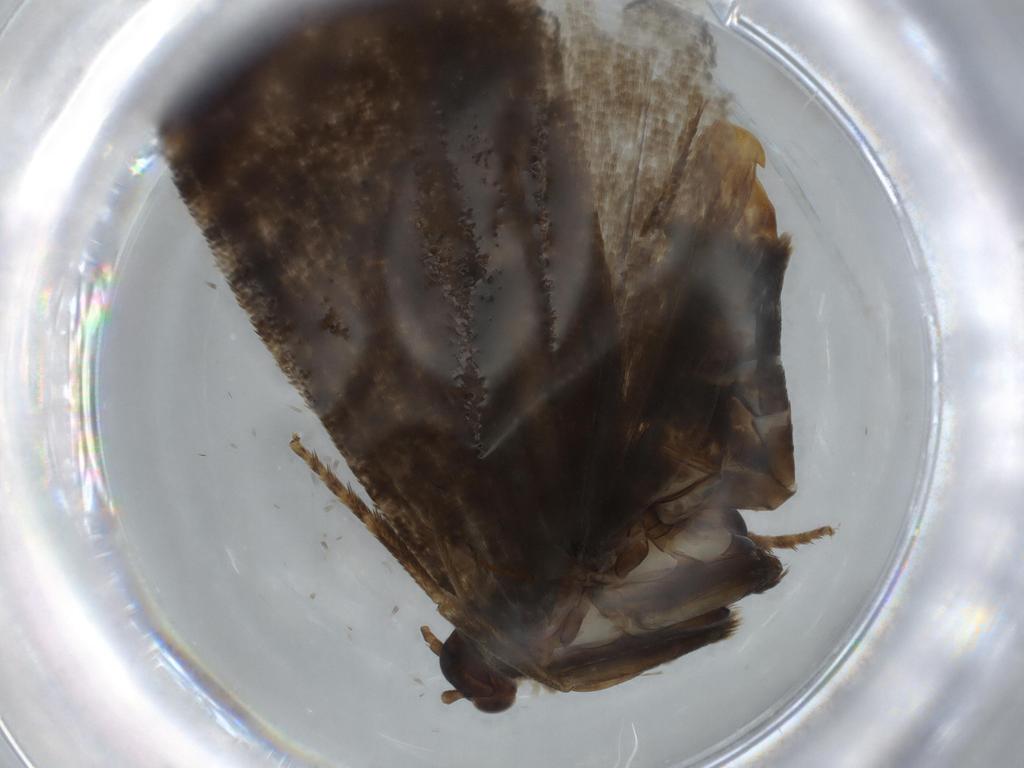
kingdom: Animalia
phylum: Arthropoda
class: Insecta
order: Lepidoptera
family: Tortricidae
